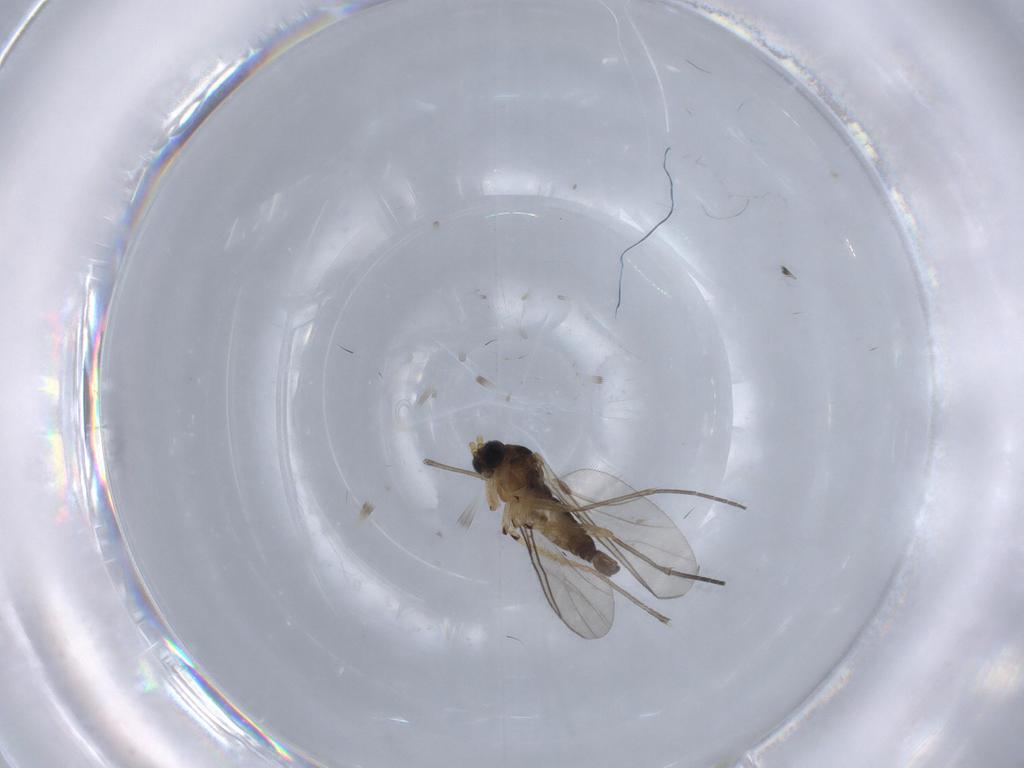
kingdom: Animalia
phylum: Arthropoda
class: Insecta
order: Diptera
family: Sciaridae
